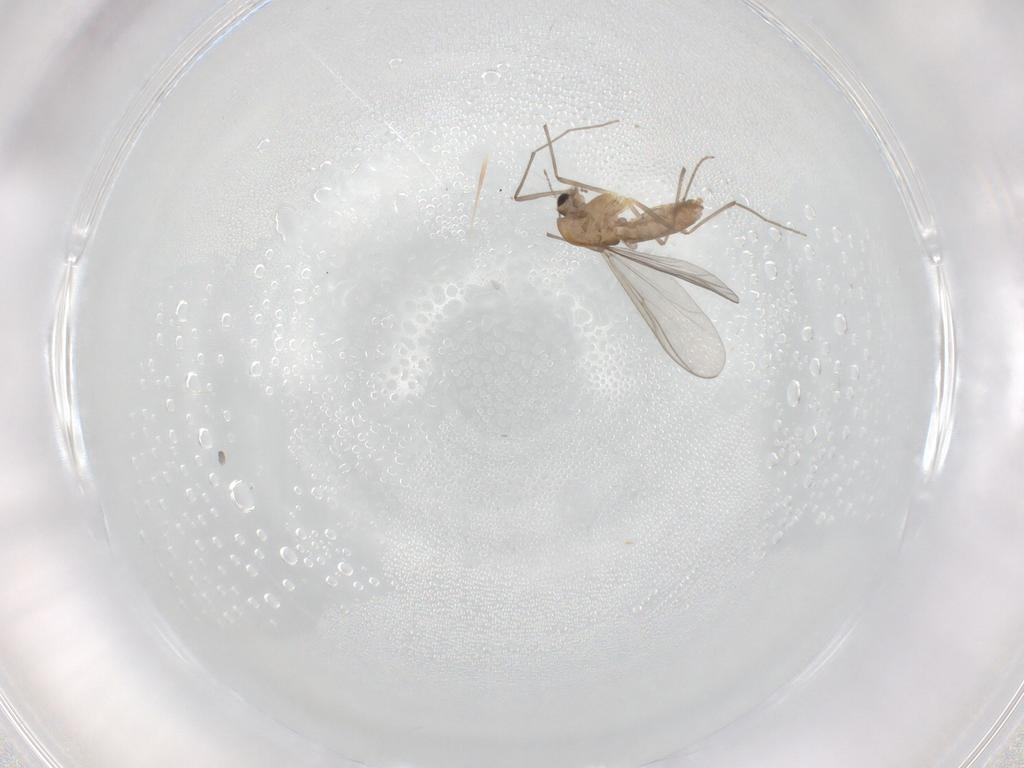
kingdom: Animalia
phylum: Arthropoda
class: Insecta
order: Diptera
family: Chironomidae
